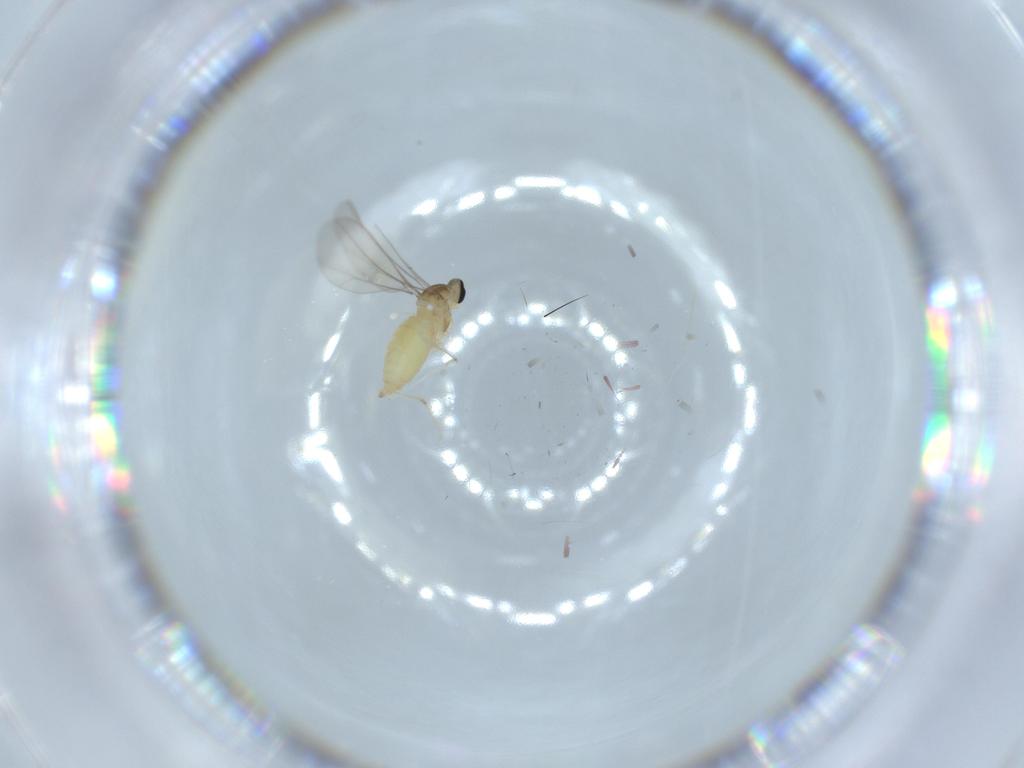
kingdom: Animalia
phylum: Arthropoda
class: Insecta
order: Diptera
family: Cecidomyiidae
